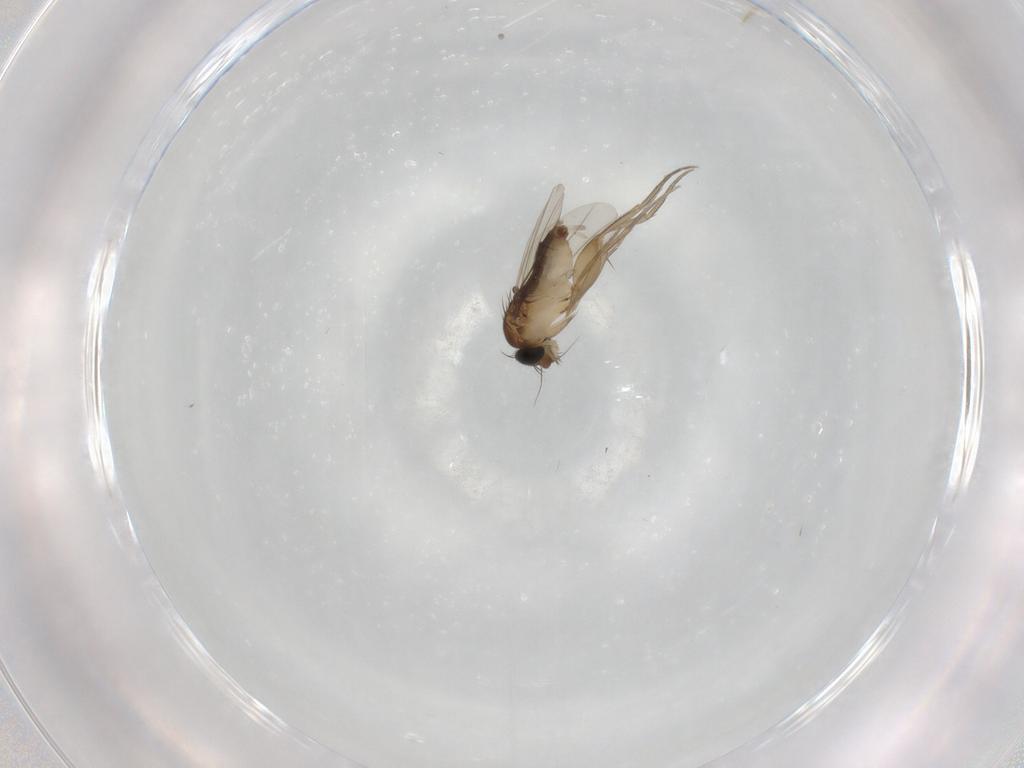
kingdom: Animalia
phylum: Arthropoda
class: Insecta
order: Diptera
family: Phoridae
